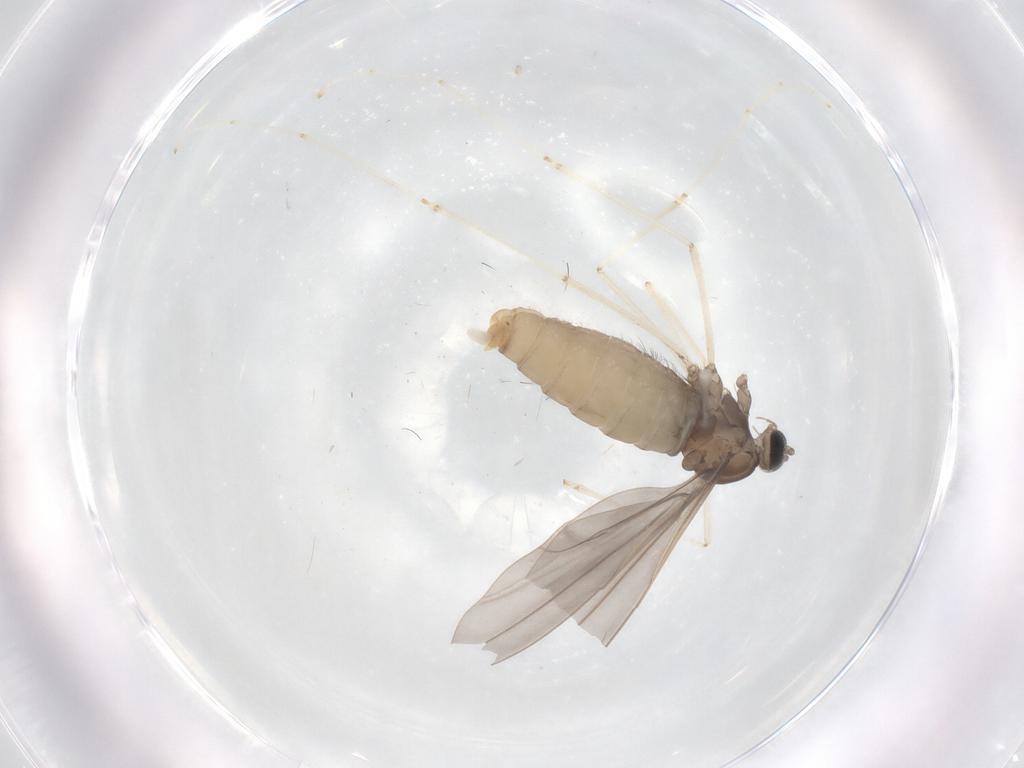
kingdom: Animalia
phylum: Arthropoda
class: Insecta
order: Diptera
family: Cecidomyiidae
